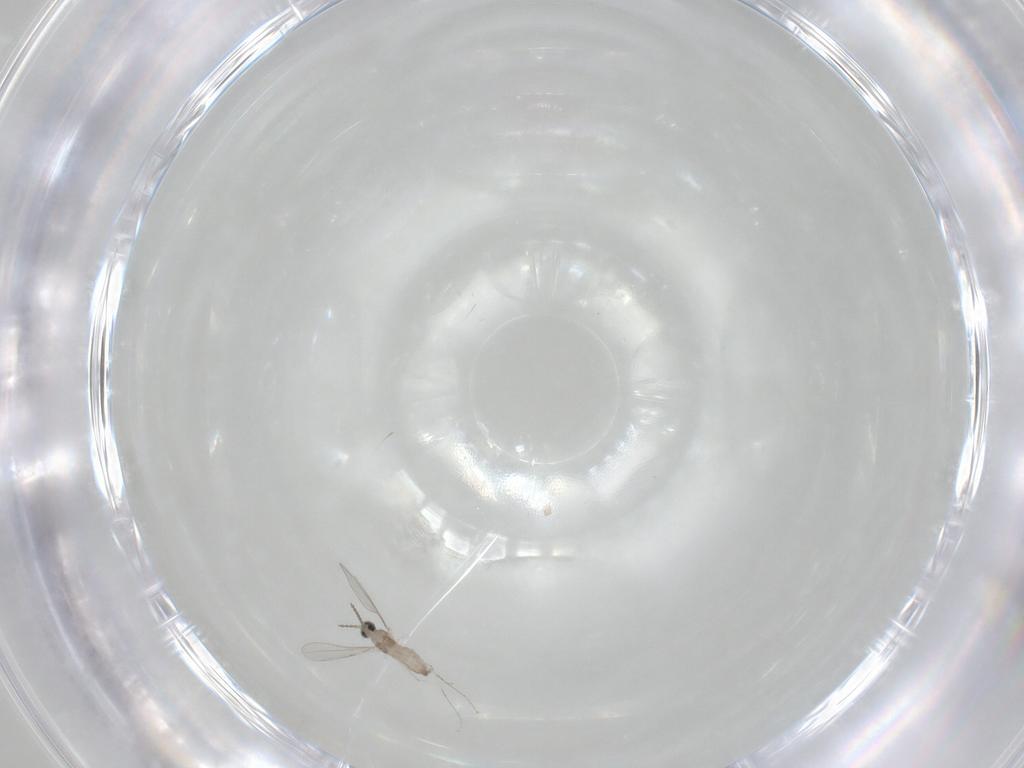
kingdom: Animalia
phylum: Arthropoda
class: Insecta
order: Diptera
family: Cecidomyiidae
